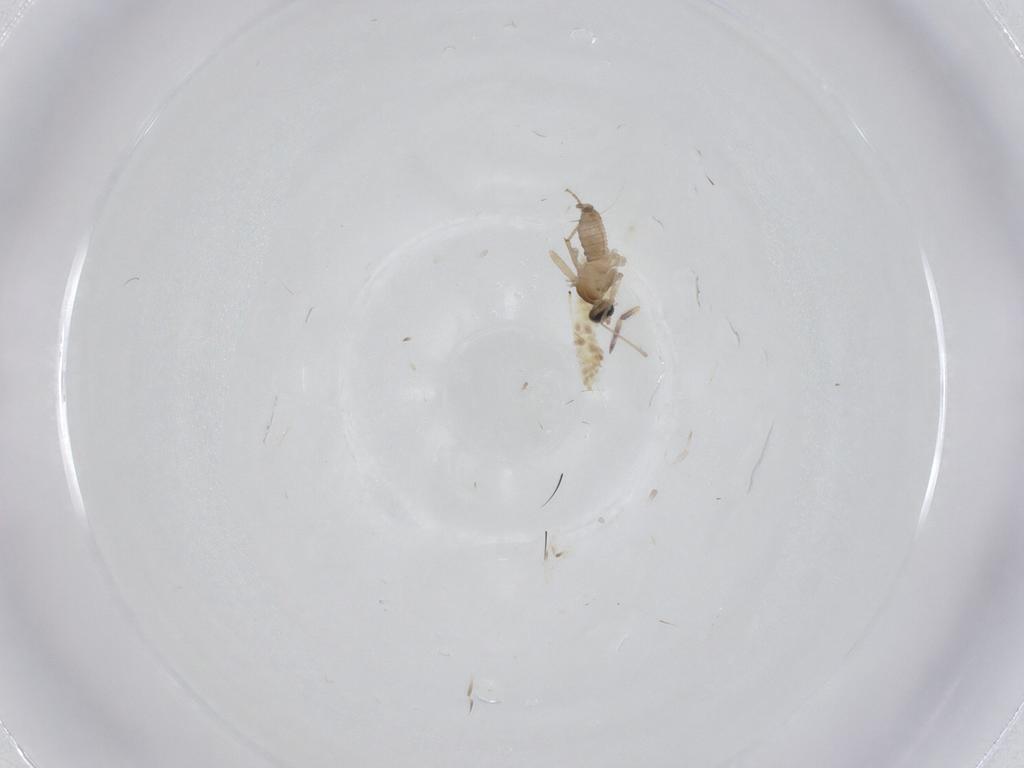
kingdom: Animalia
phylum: Arthropoda
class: Insecta
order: Diptera
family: Cecidomyiidae
